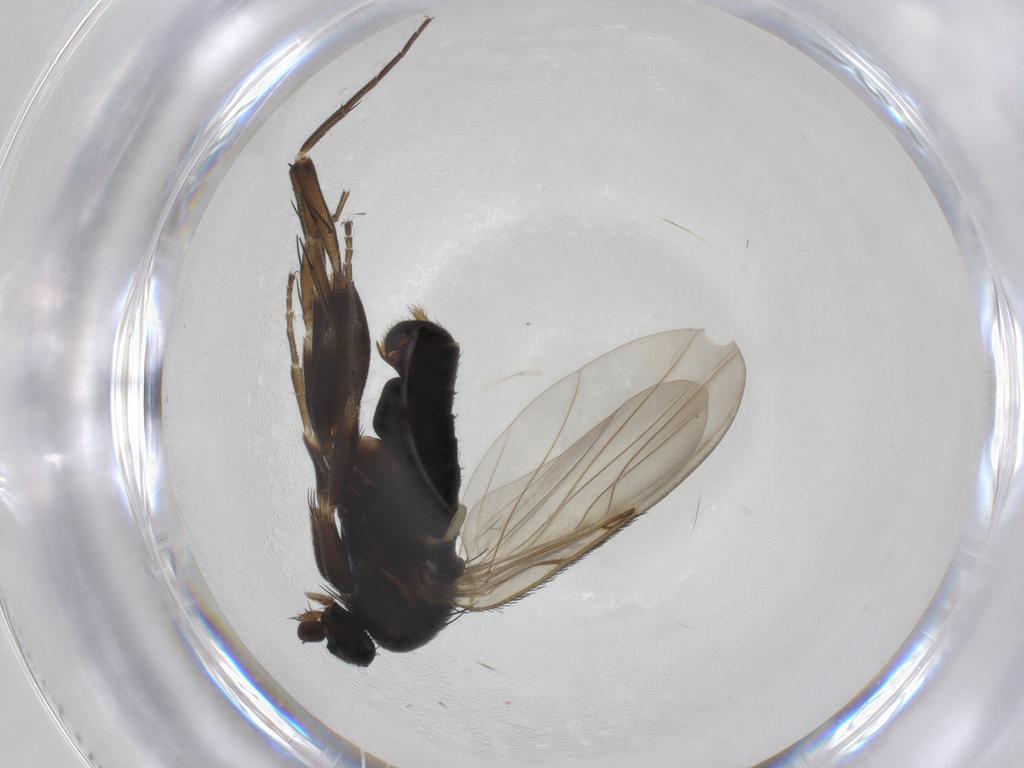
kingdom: Animalia
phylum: Arthropoda
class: Insecta
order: Diptera
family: Phoridae
